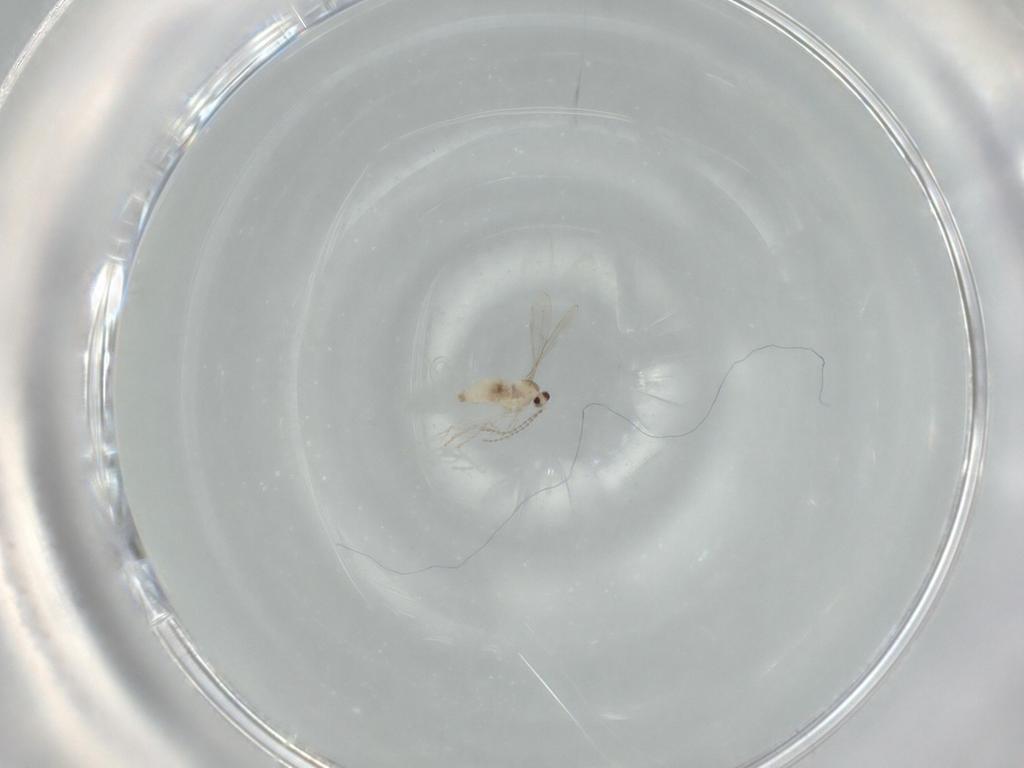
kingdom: Animalia
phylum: Arthropoda
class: Insecta
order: Diptera
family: Cecidomyiidae
